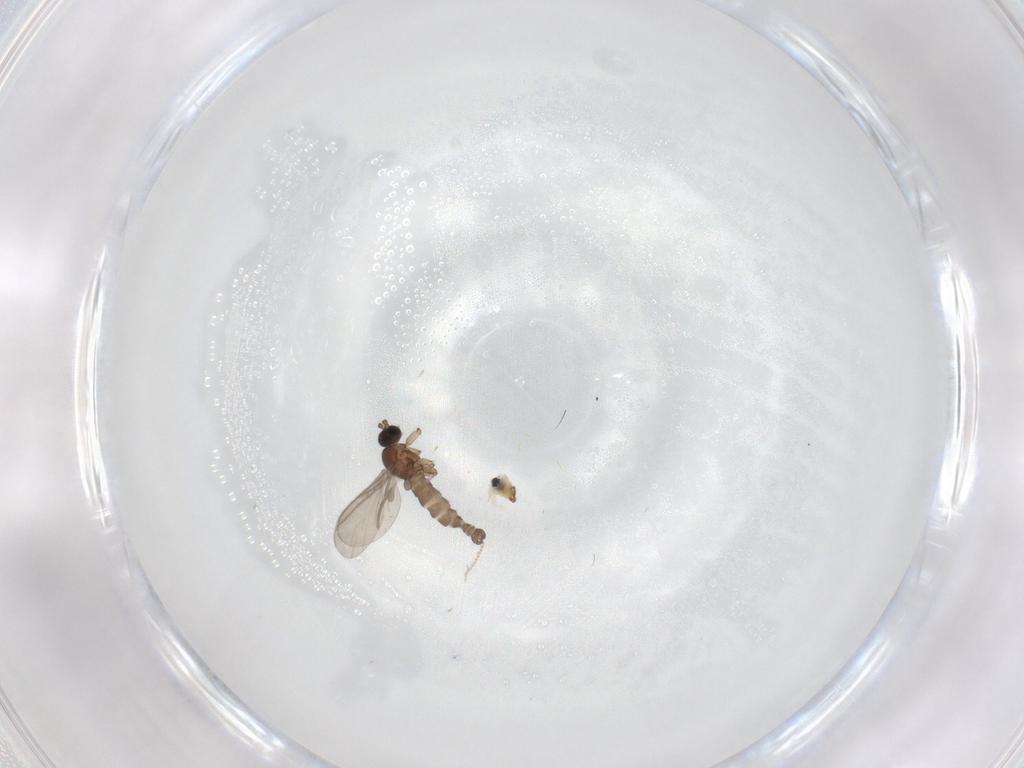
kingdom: Animalia
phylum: Arthropoda
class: Insecta
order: Diptera
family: Sciaridae
